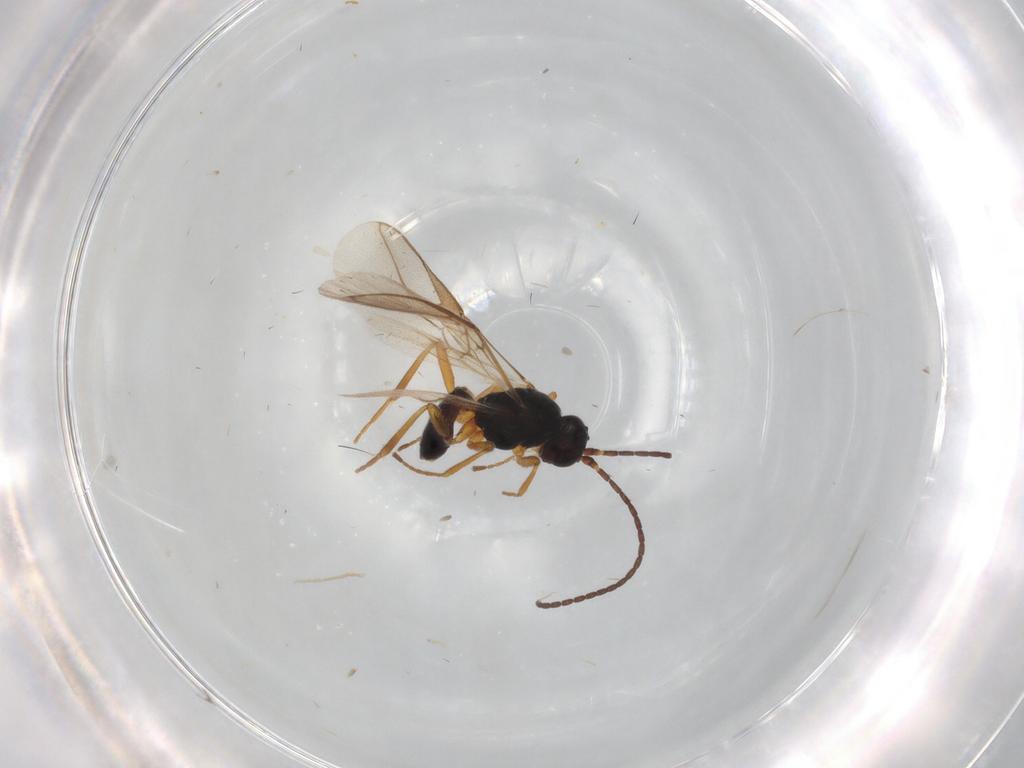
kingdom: Animalia
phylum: Arthropoda
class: Insecta
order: Hymenoptera
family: Braconidae
